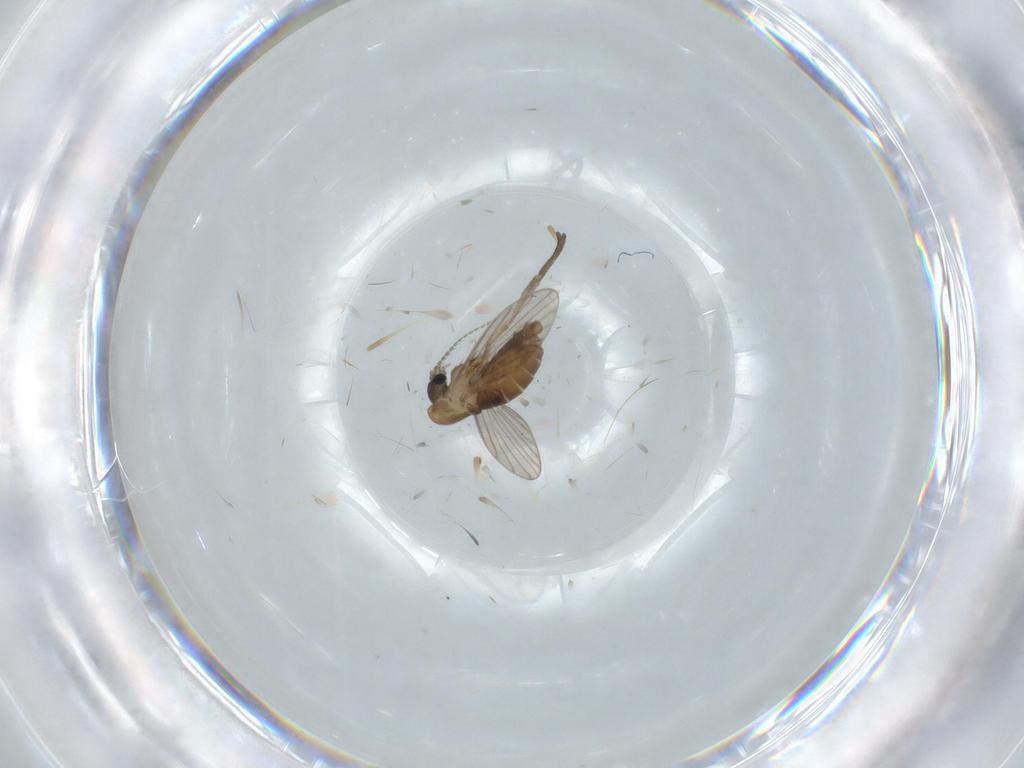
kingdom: Animalia
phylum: Arthropoda
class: Insecta
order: Diptera
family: Psychodidae
